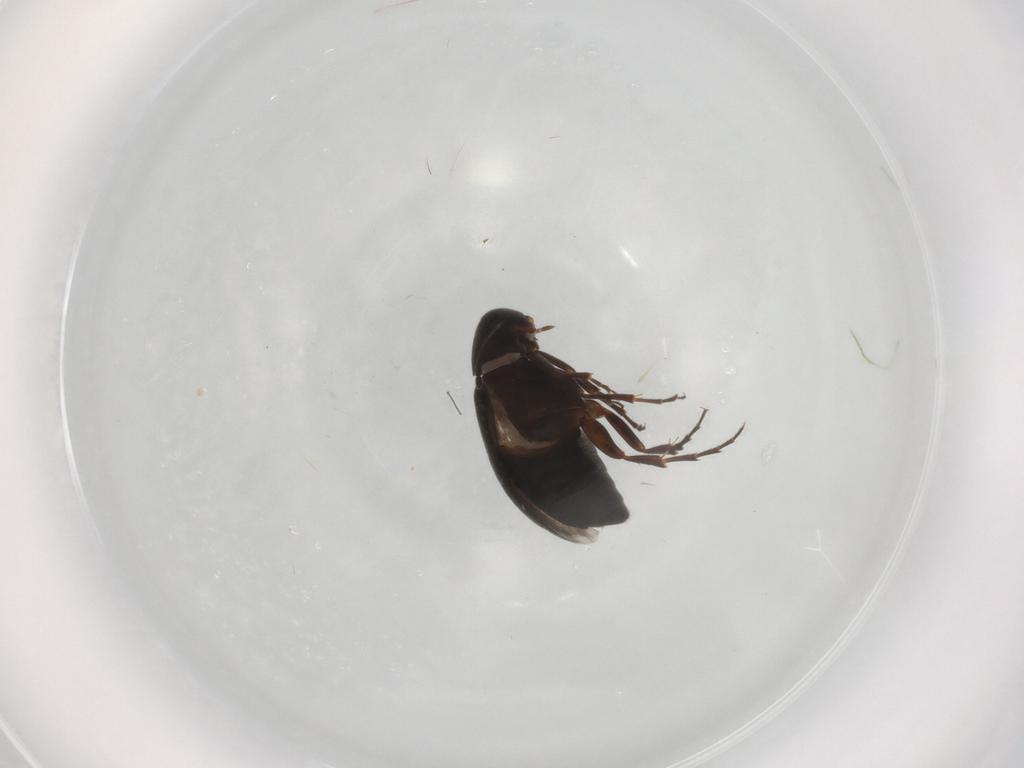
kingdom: Animalia
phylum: Arthropoda
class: Insecta
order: Coleoptera
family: Scraptiidae
